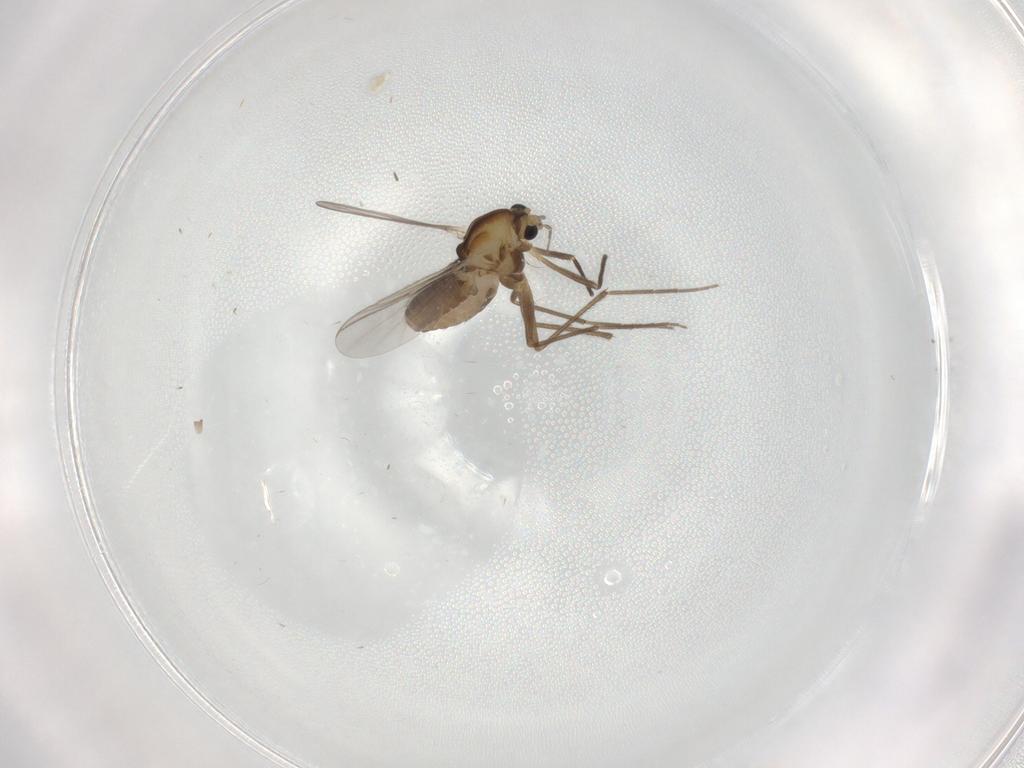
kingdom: Animalia
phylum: Arthropoda
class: Insecta
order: Diptera
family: Chironomidae
